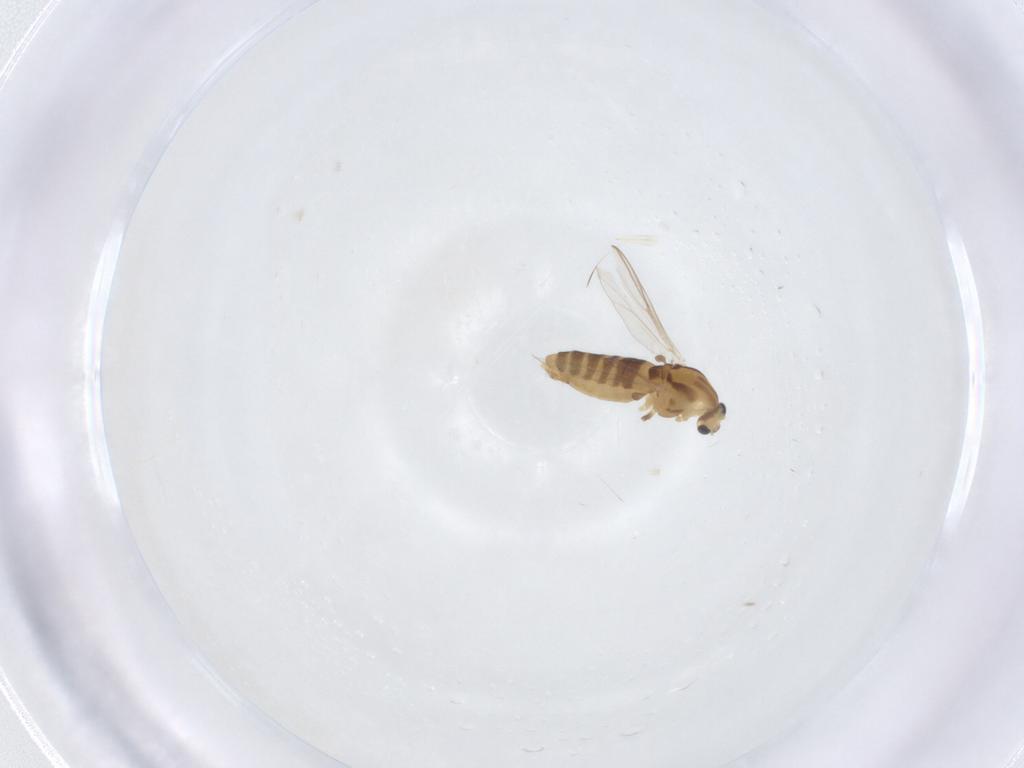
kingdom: Animalia
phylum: Arthropoda
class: Insecta
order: Diptera
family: Chironomidae
